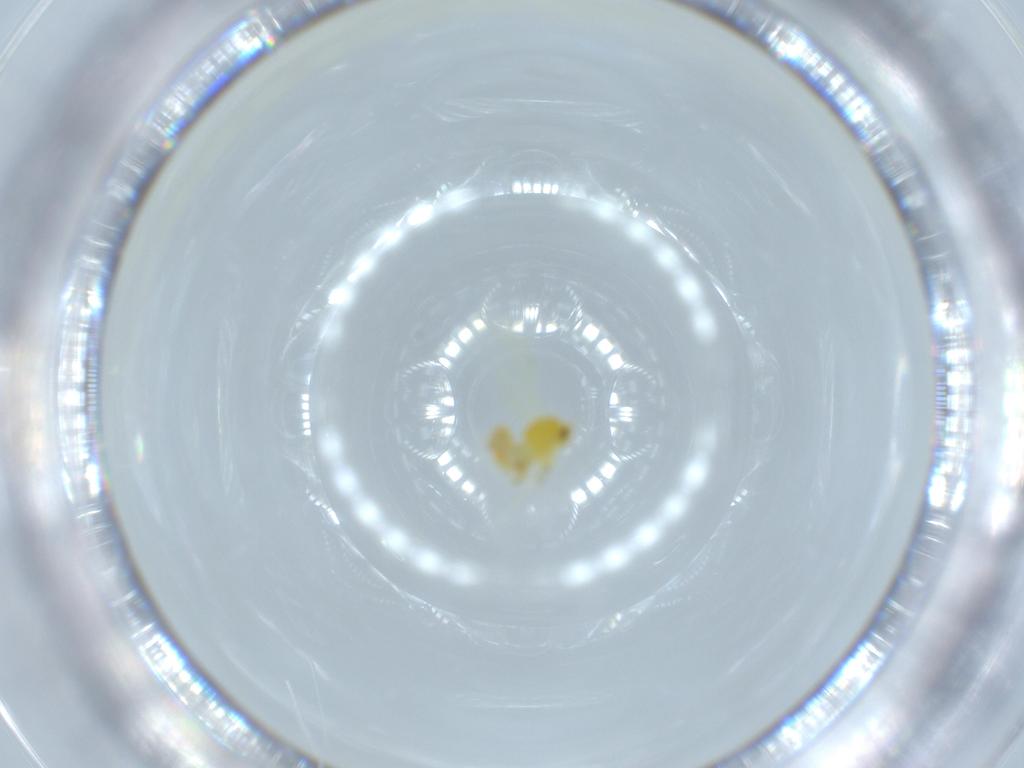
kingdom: Animalia
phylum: Arthropoda
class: Insecta
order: Hemiptera
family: Aleyrodidae
